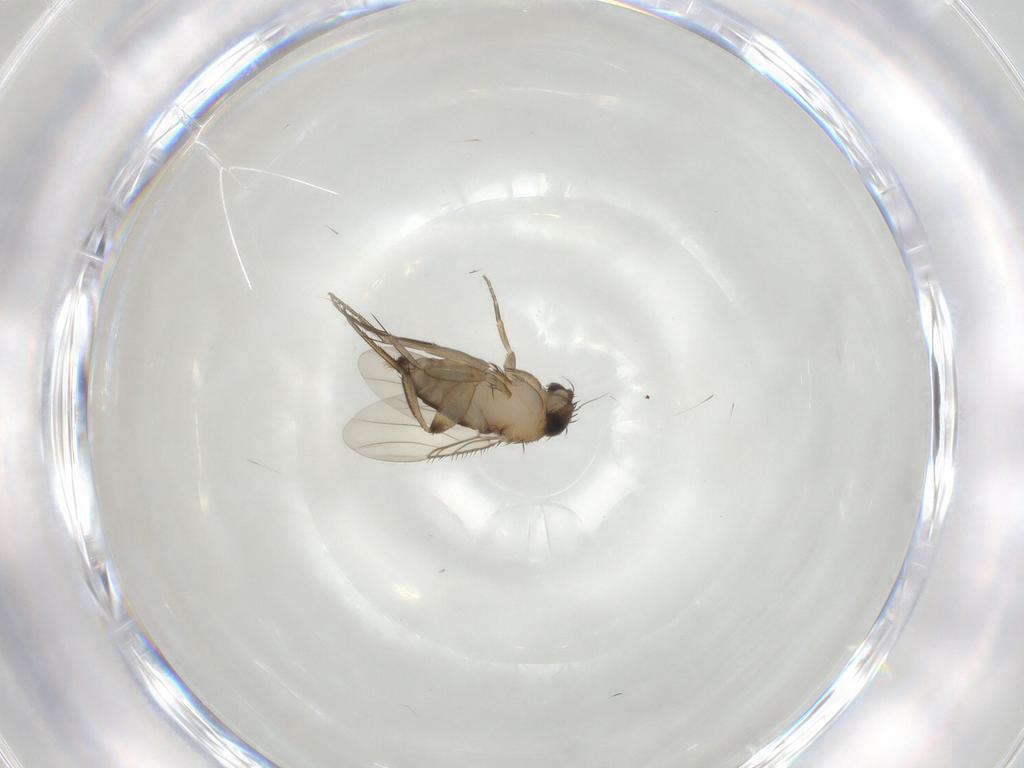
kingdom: Animalia
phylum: Arthropoda
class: Insecta
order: Diptera
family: Phoridae
